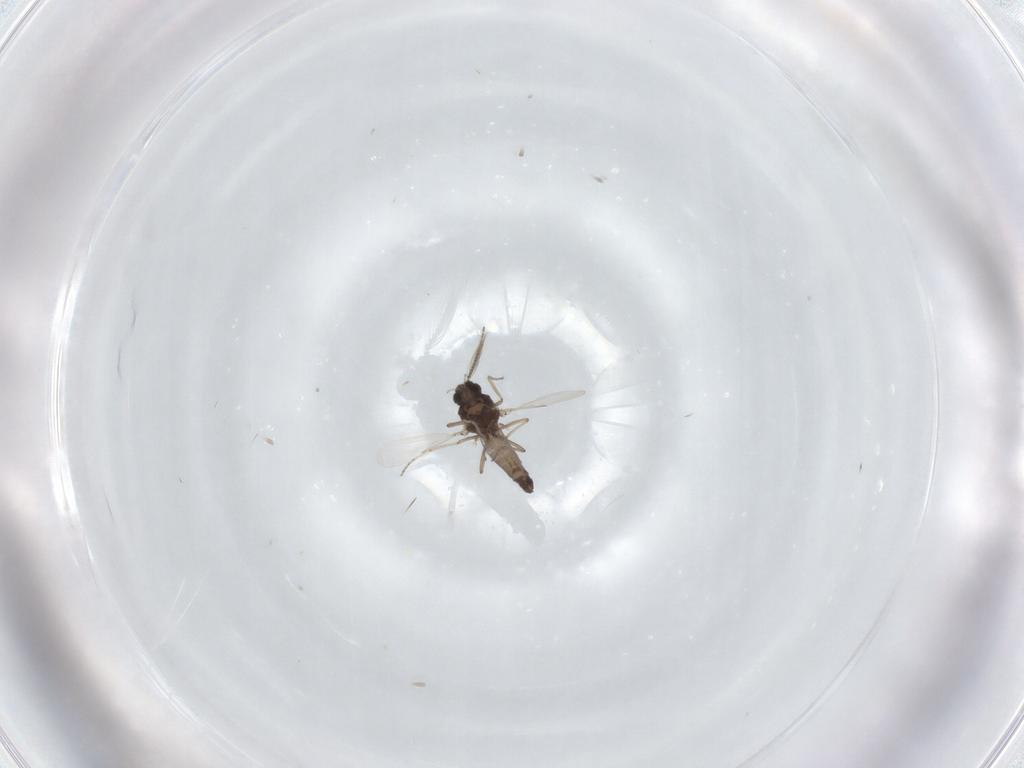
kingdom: Animalia
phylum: Arthropoda
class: Insecta
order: Diptera
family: Ceratopogonidae
